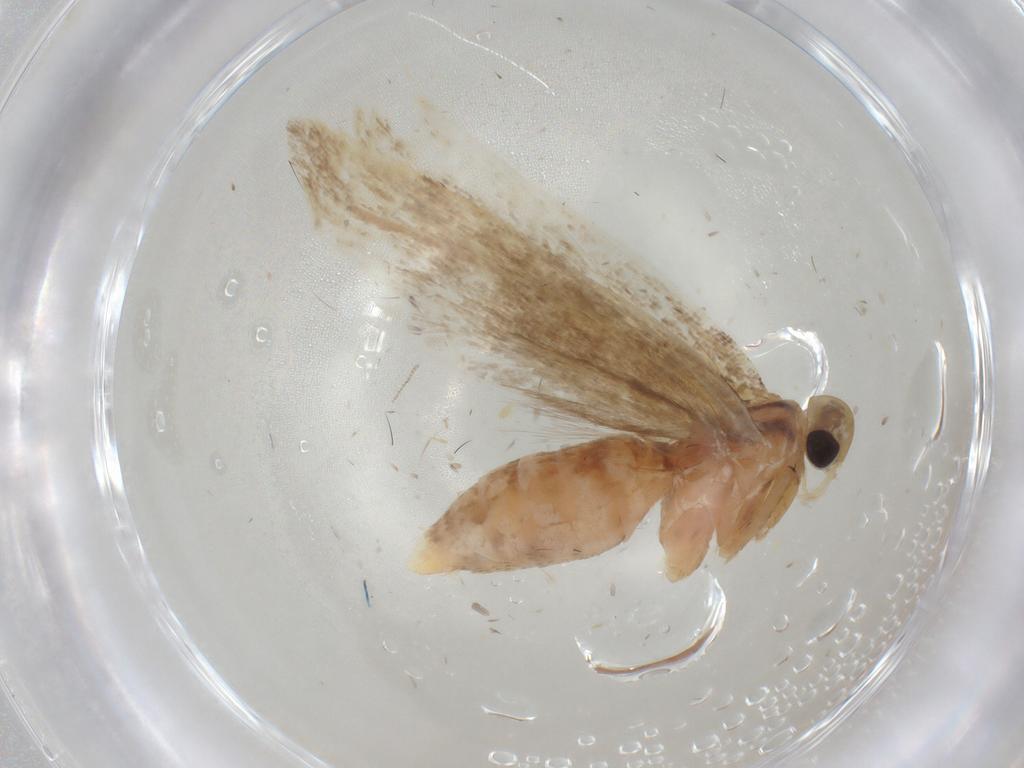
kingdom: Animalia
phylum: Arthropoda
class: Insecta
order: Lepidoptera
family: Gelechiidae
